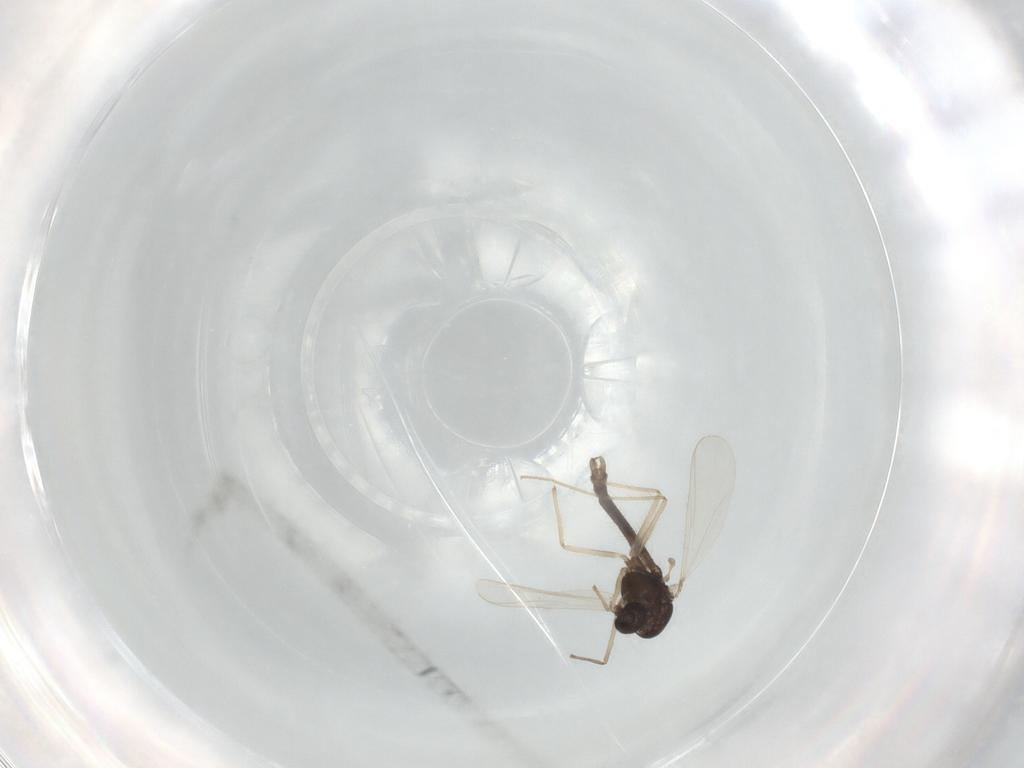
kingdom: Animalia
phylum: Arthropoda
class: Insecta
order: Diptera
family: Chironomidae
